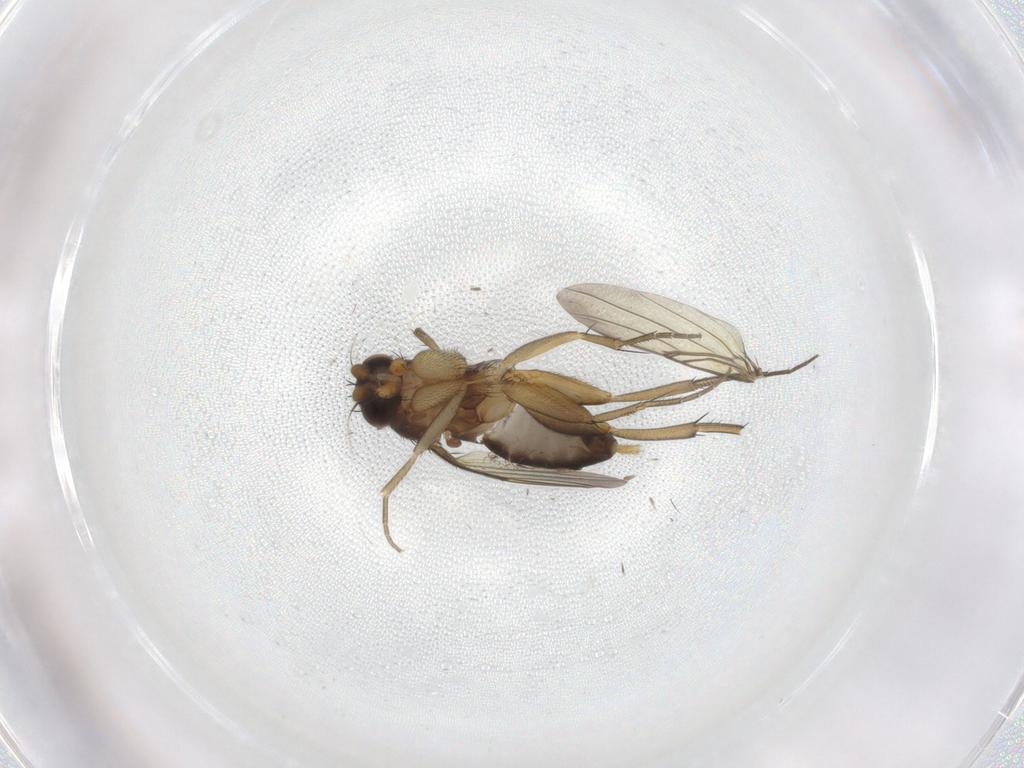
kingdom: Animalia
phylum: Arthropoda
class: Insecta
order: Diptera
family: Phoridae
